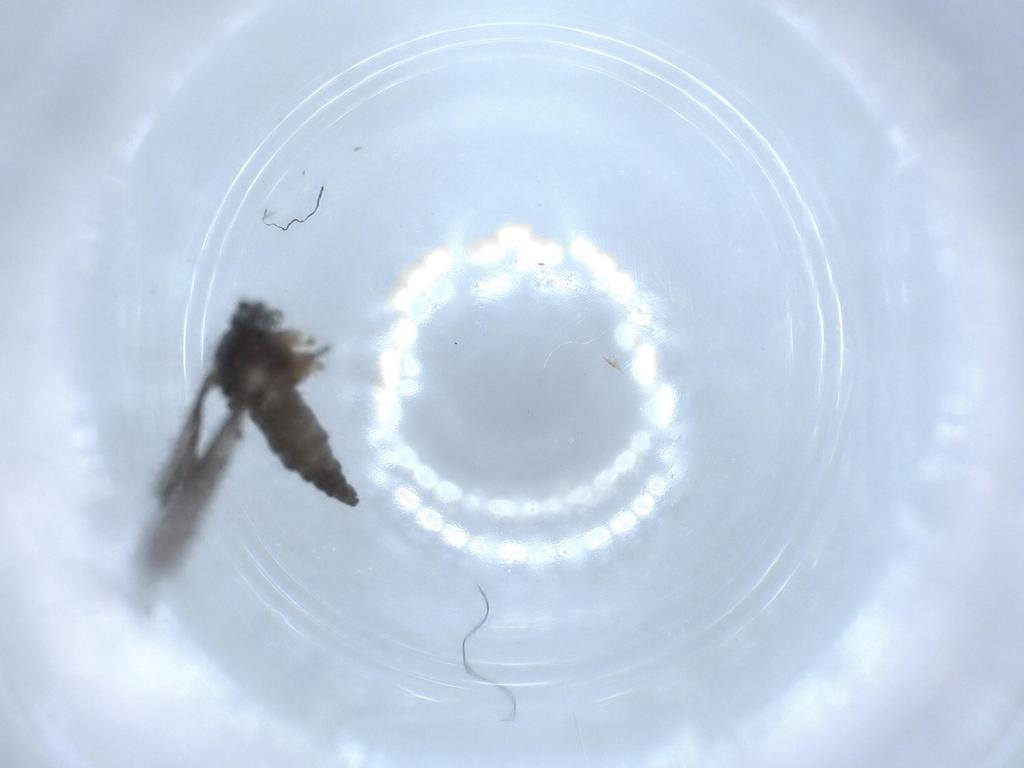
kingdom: Animalia
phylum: Arthropoda
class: Insecta
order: Diptera
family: Sciaridae
